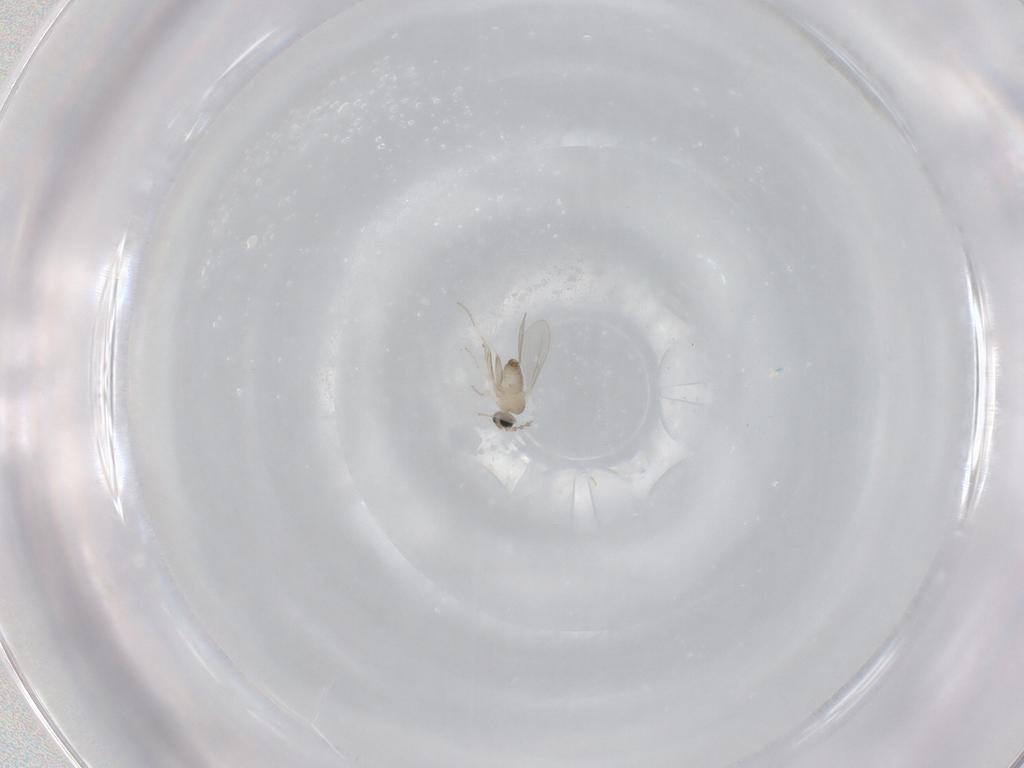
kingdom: Animalia
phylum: Arthropoda
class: Insecta
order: Diptera
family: Cecidomyiidae
